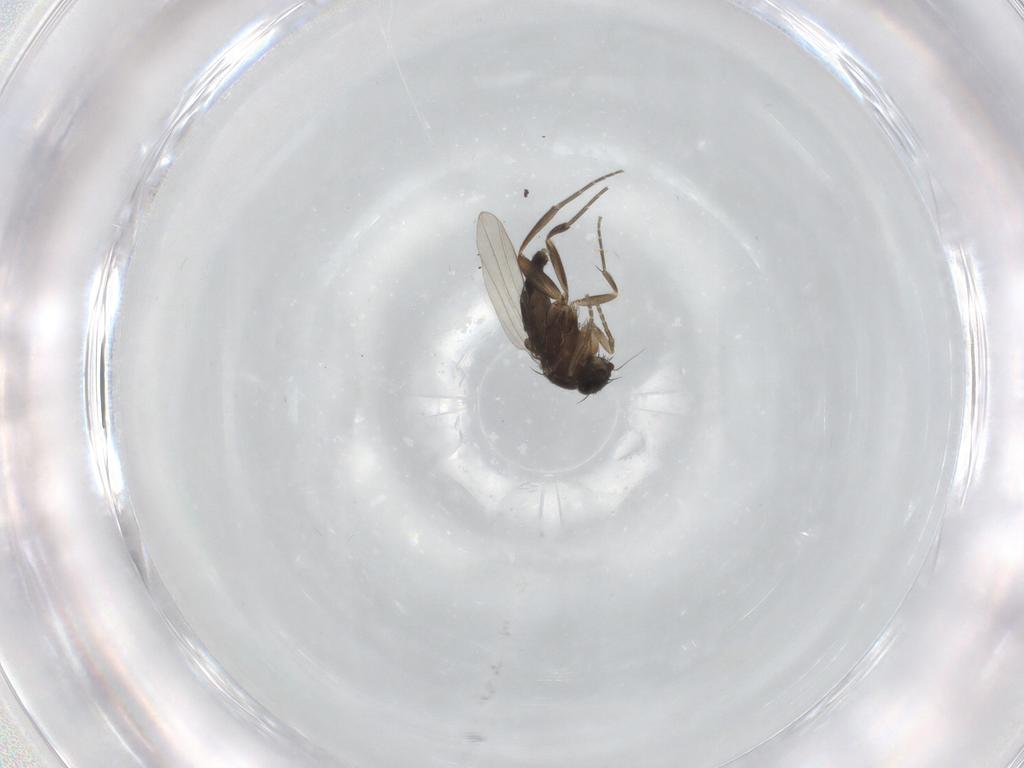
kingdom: Animalia
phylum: Arthropoda
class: Insecta
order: Diptera
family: Phoridae
